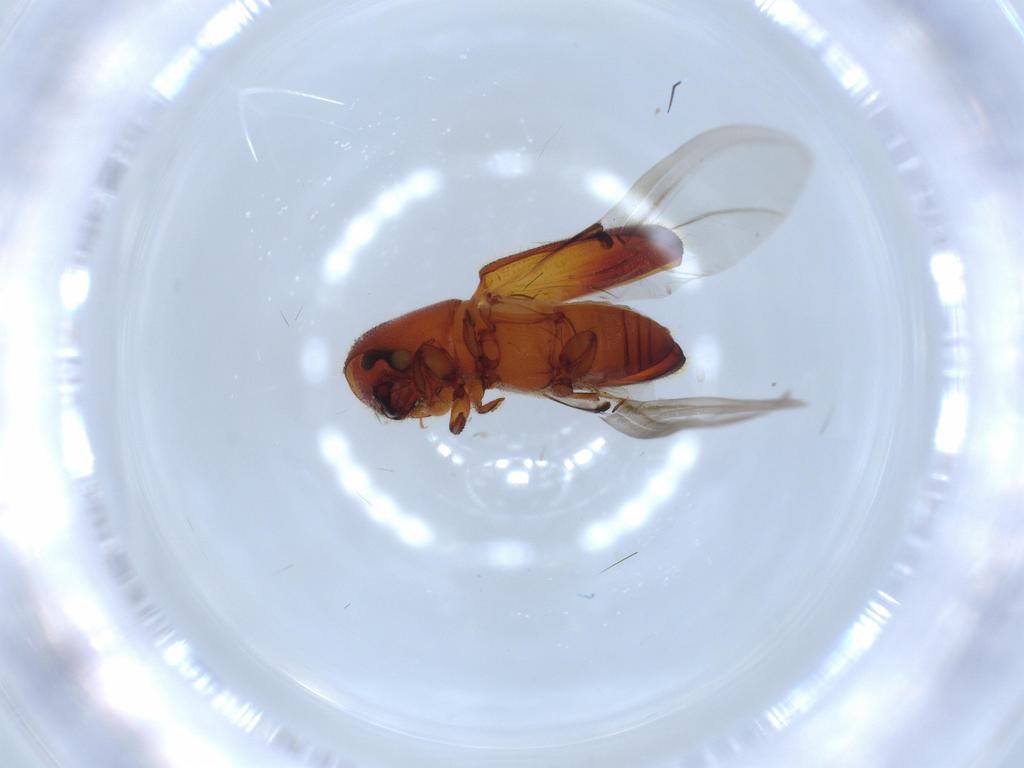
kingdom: Animalia
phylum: Arthropoda
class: Insecta
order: Coleoptera
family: Curculionidae
